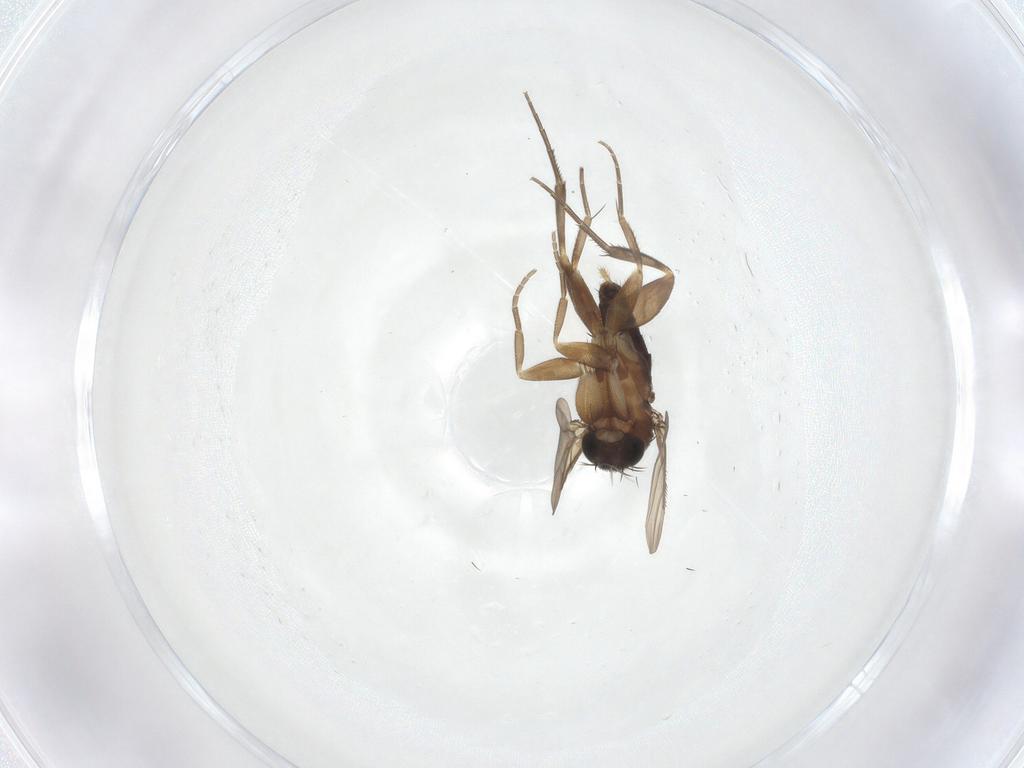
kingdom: Animalia
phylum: Arthropoda
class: Insecta
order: Diptera
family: Phoridae
